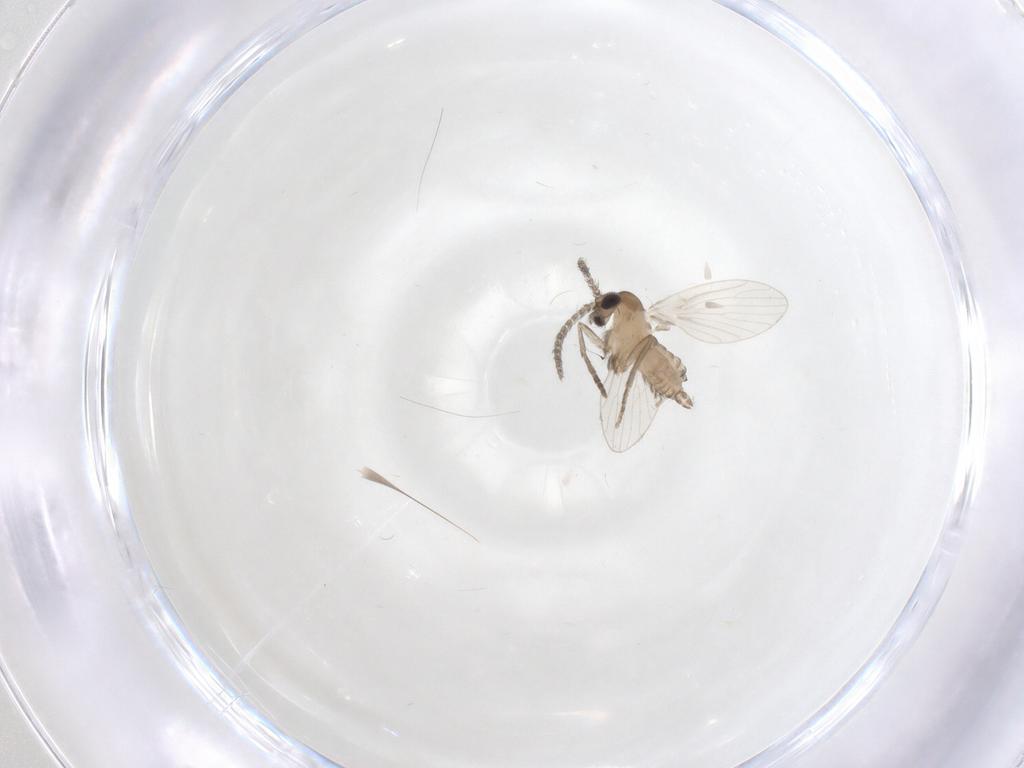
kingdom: Animalia
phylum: Arthropoda
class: Insecta
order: Diptera
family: Psychodidae
